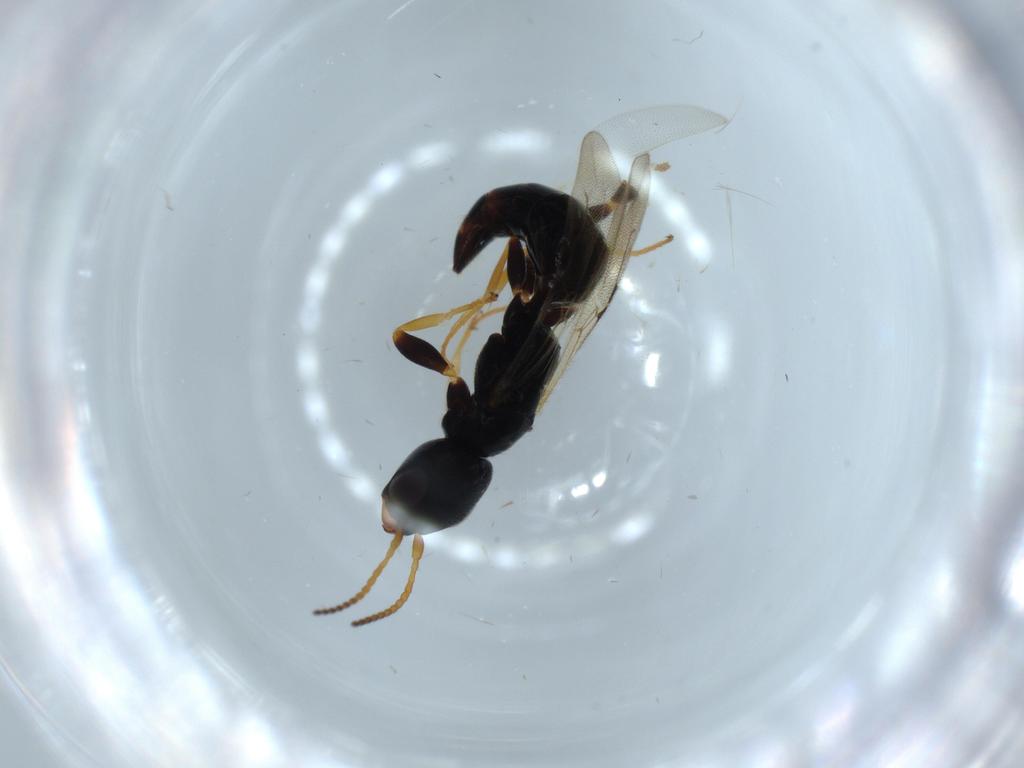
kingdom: Animalia
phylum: Arthropoda
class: Insecta
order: Hymenoptera
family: Bethylidae
